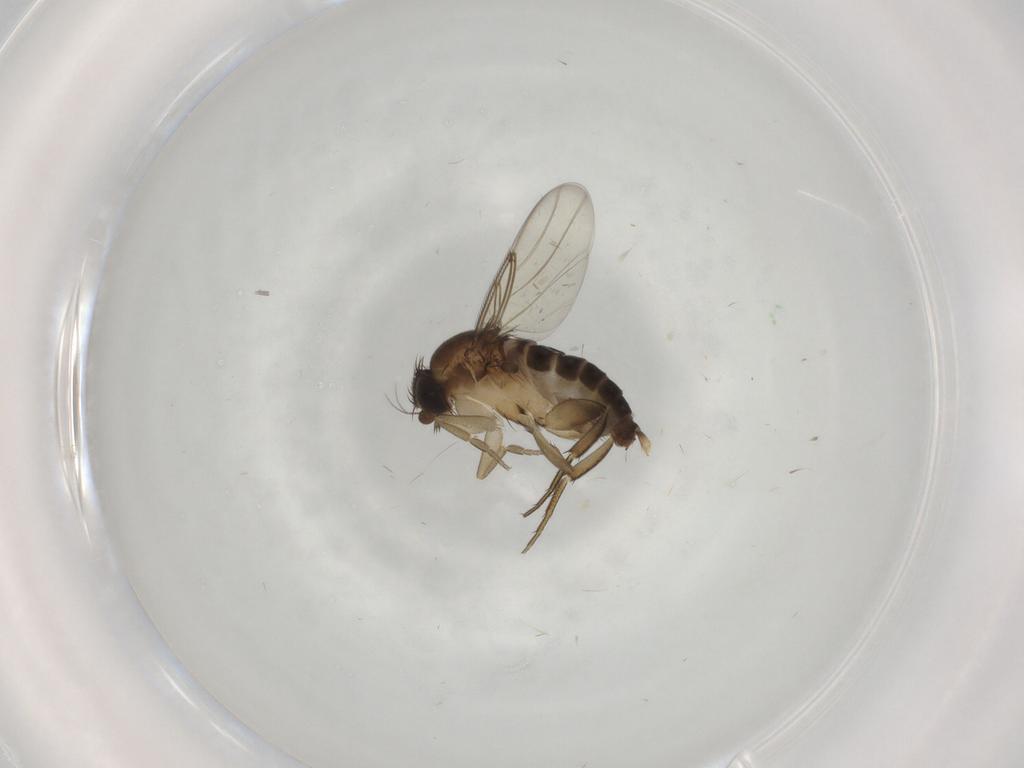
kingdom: Animalia
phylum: Arthropoda
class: Insecta
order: Diptera
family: Phoridae
